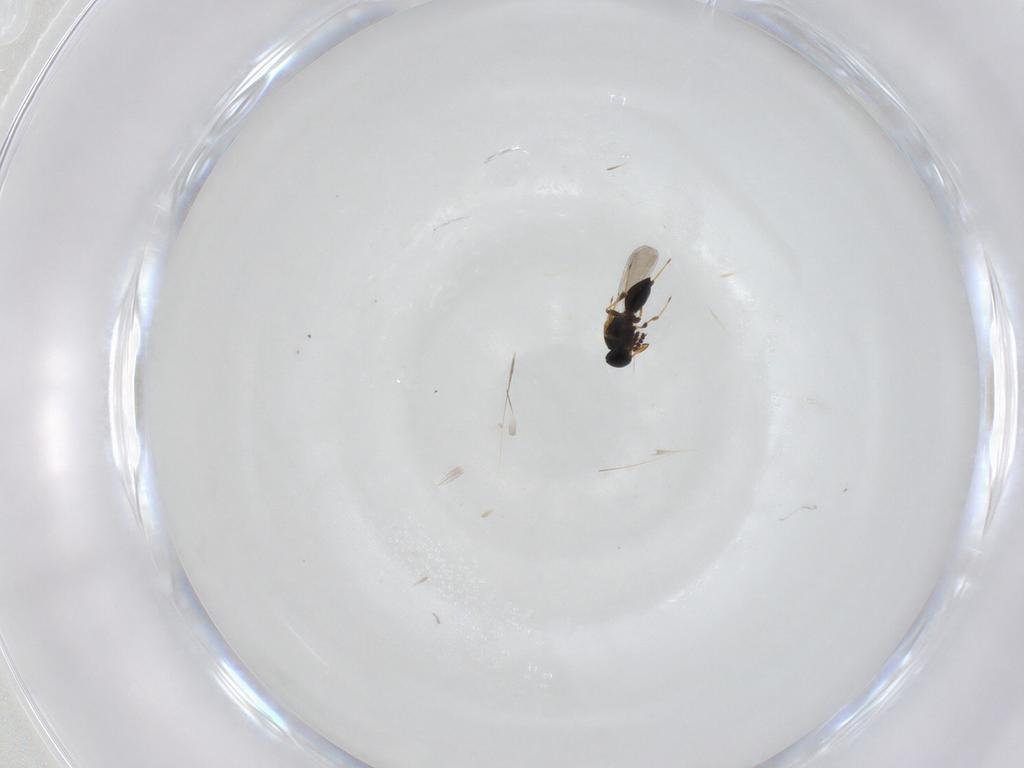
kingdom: Animalia
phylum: Arthropoda
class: Insecta
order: Hymenoptera
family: Platygastridae
